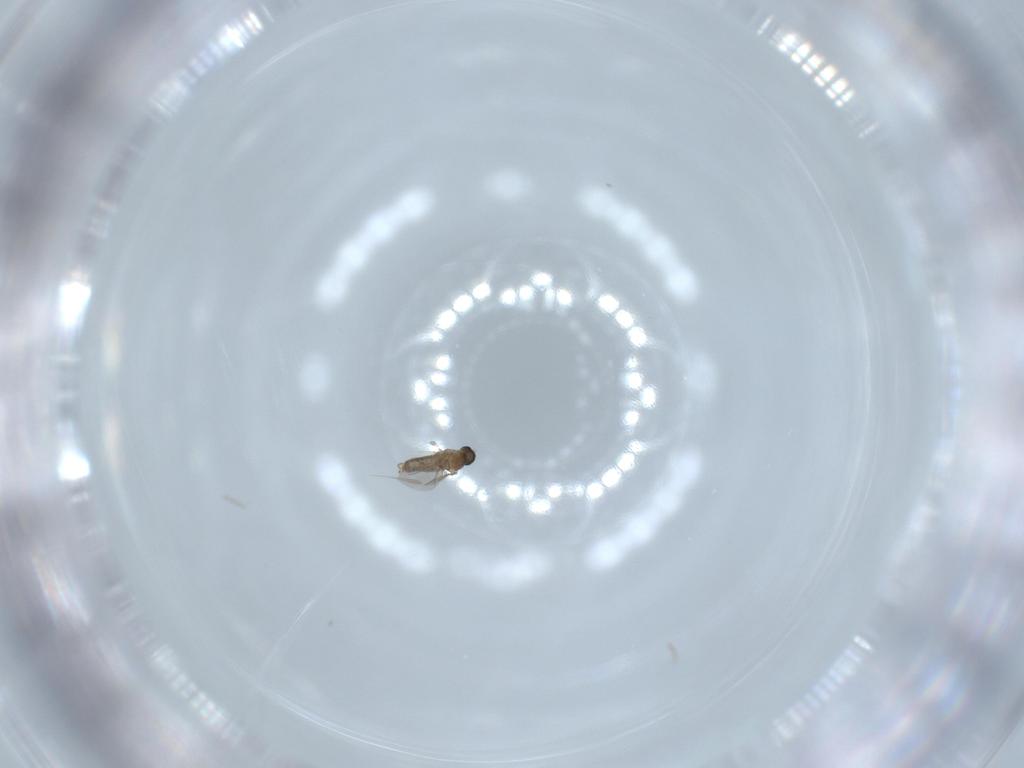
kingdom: Animalia
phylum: Arthropoda
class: Insecta
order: Diptera
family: Cecidomyiidae
